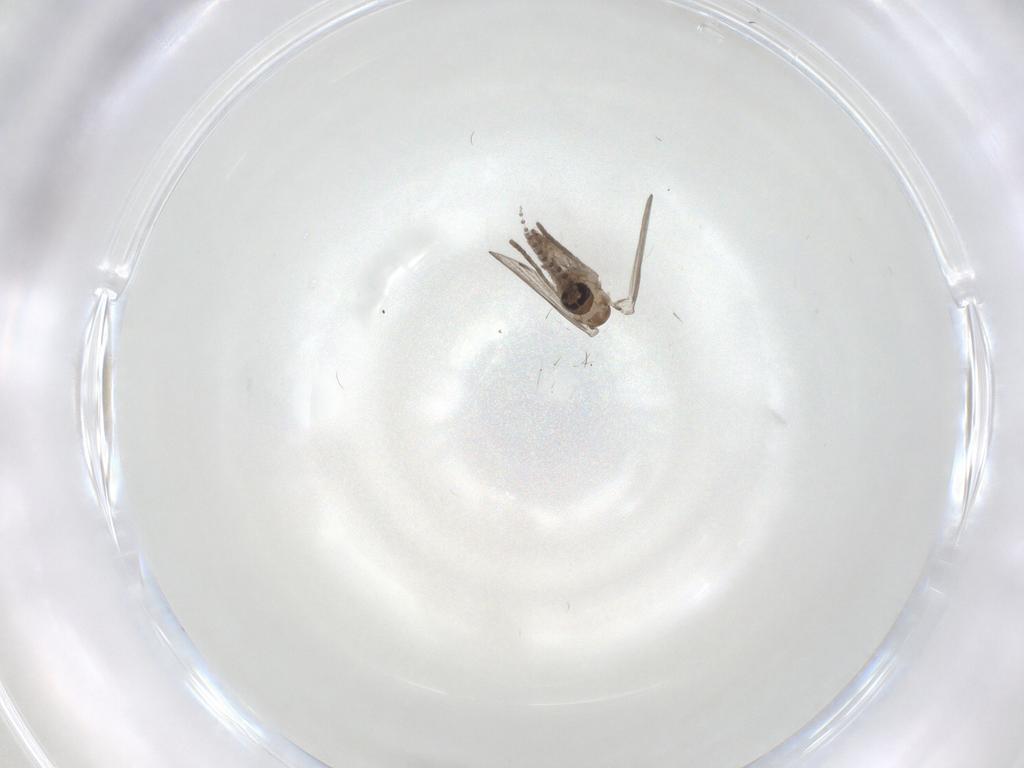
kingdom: Animalia
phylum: Arthropoda
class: Insecta
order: Diptera
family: Psychodidae
